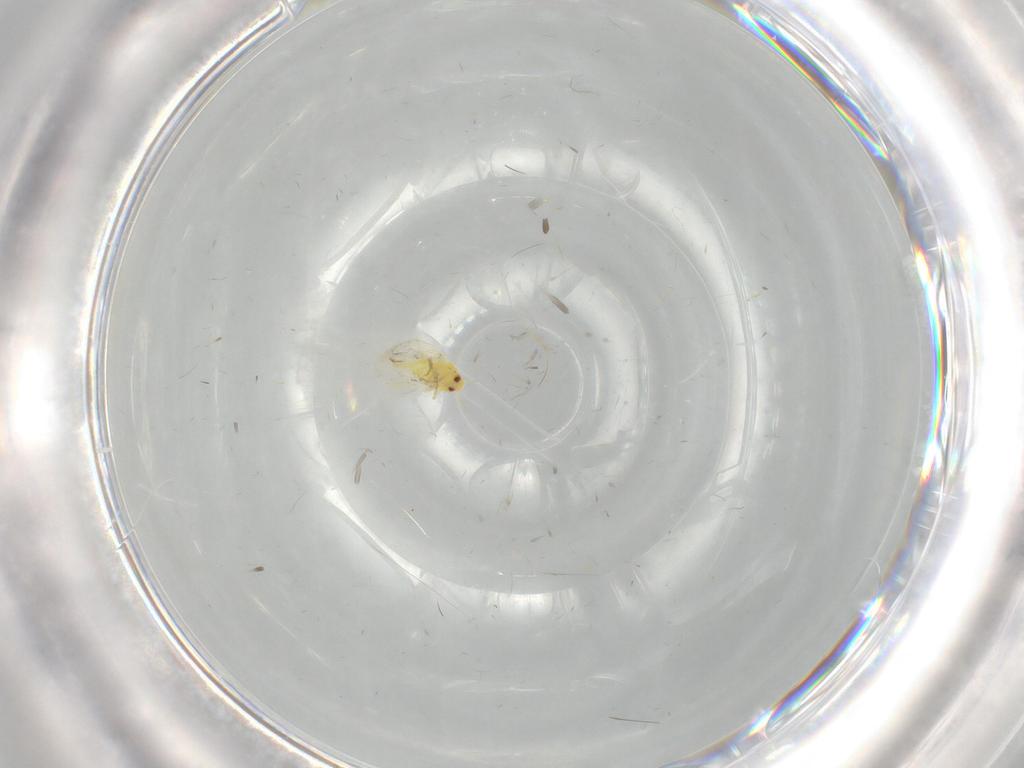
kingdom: Animalia
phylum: Arthropoda
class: Insecta
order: Hemiptera
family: Aleyrodidae
